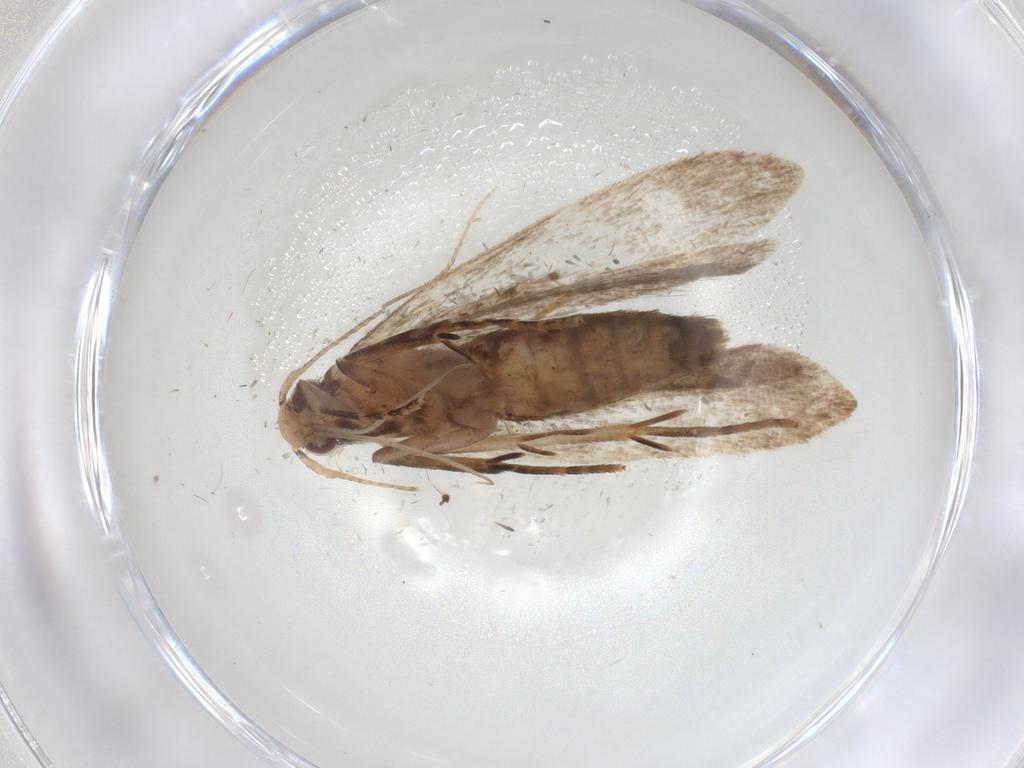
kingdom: Animalia
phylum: Arthropoda
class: Insecta
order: Lepidoptera
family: Gelechiidae
